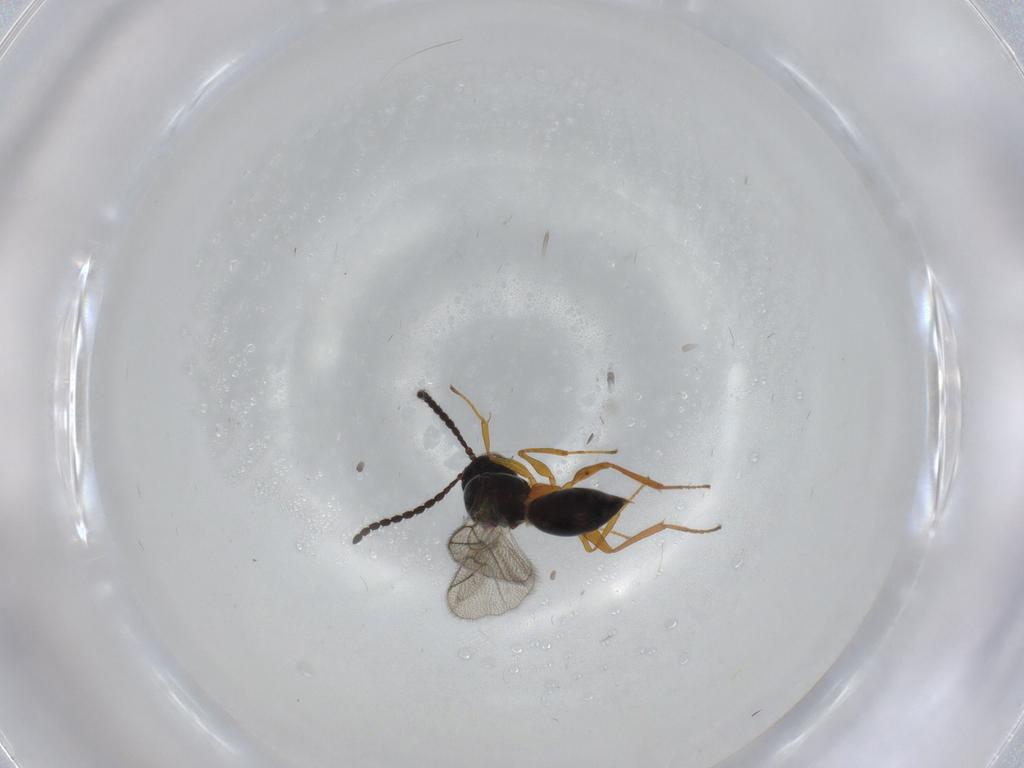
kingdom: Animalia
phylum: Arthropoda
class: Insecta
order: Hymenoptera
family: Figitidae
